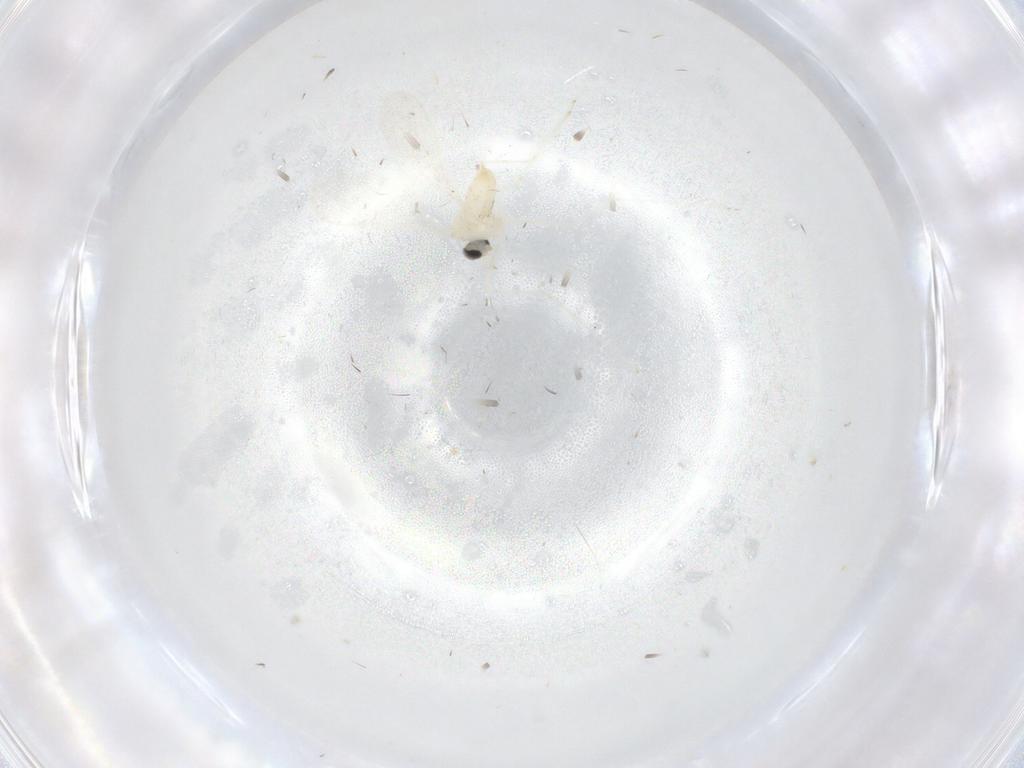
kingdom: Animalia
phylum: Arthropoda
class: Insecta
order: Diptera
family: Cecidomyiidae
